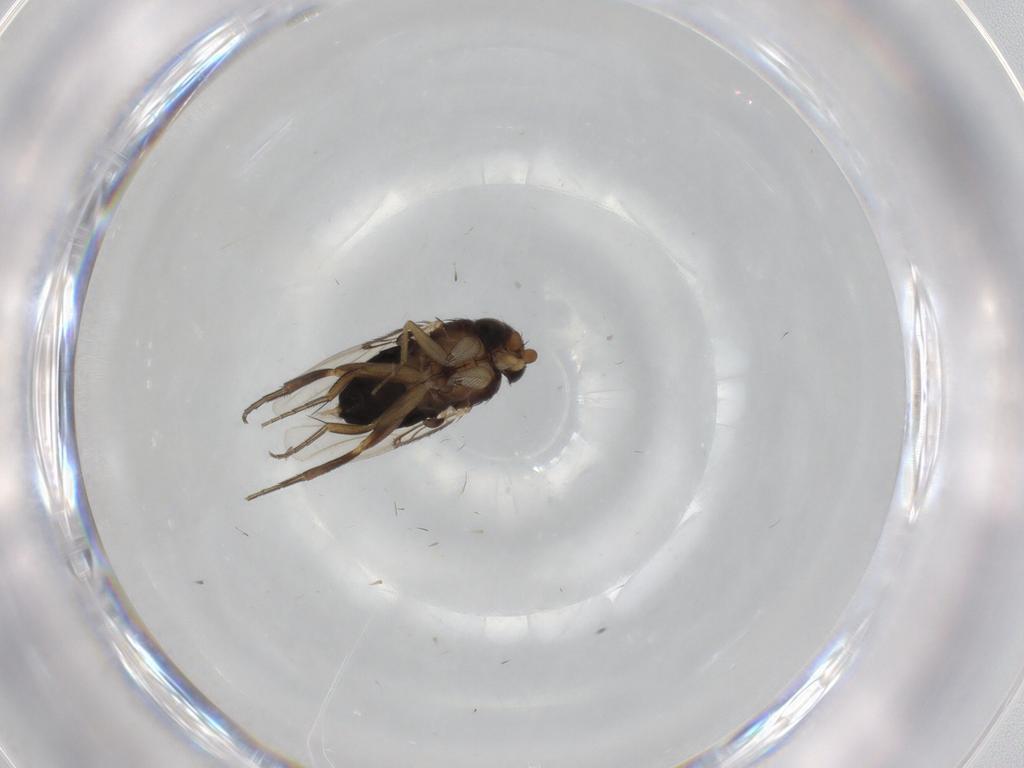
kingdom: Animalia
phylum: Arthropoda
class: Insecta
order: Diptera
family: Phoridae
